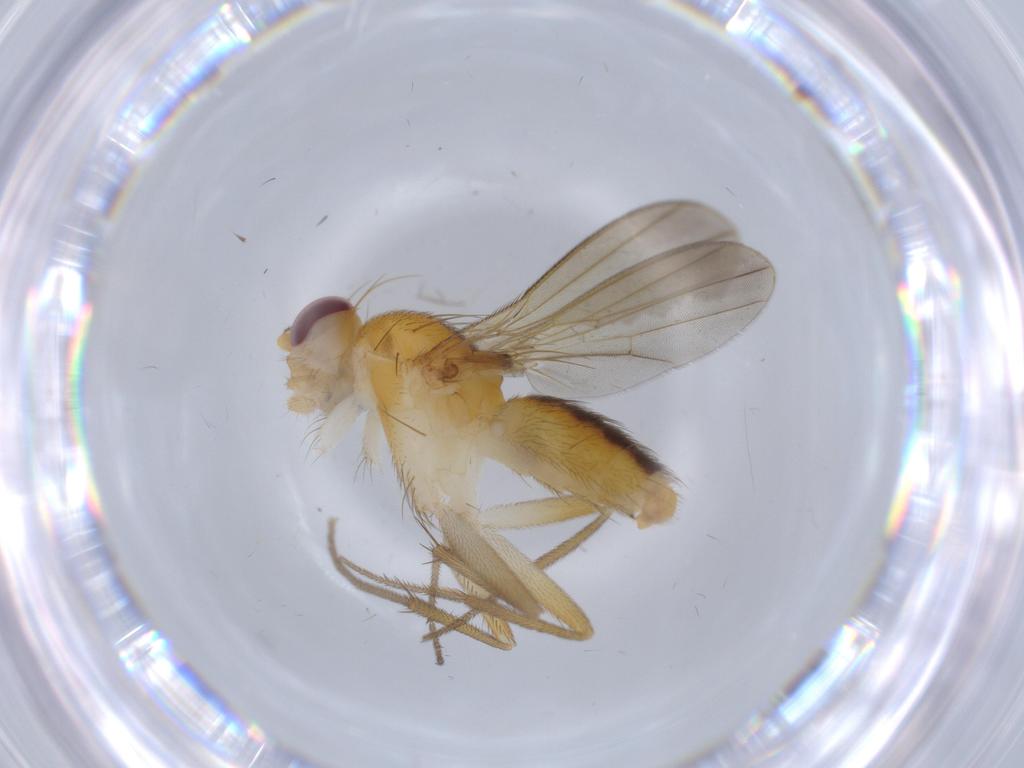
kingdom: Animalia
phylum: Arthropoda
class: Insecta
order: Diptera
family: Clusiidae
